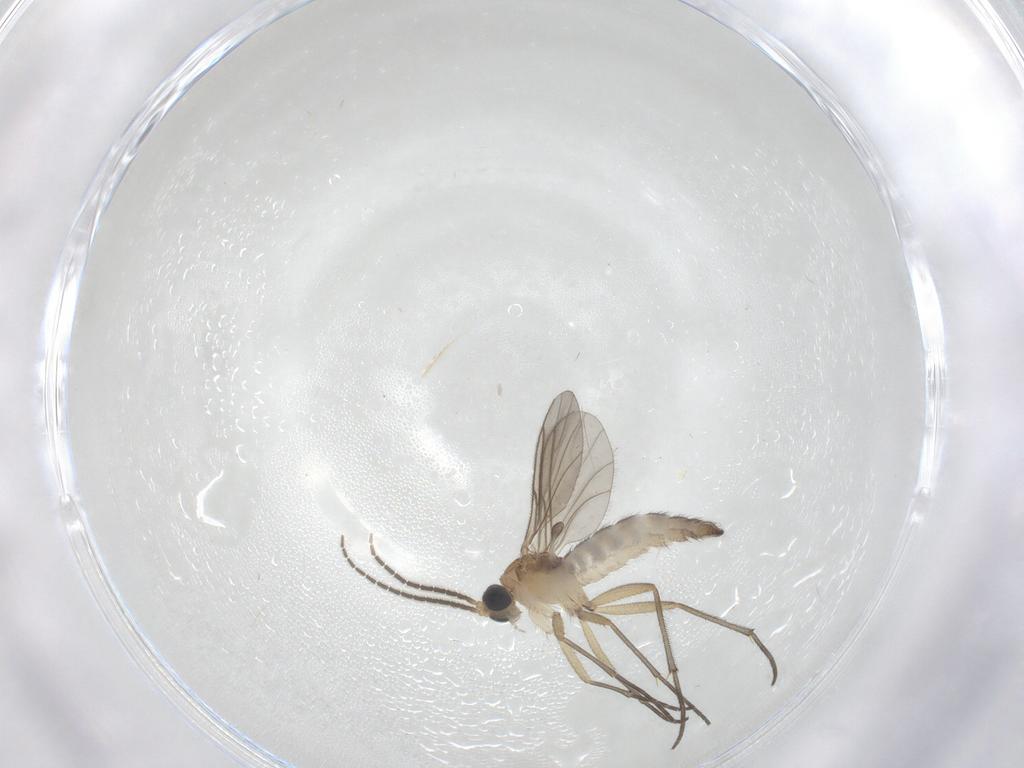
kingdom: Animalia
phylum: Arthropoda
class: Insecta
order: Diptera
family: Sciaridae
